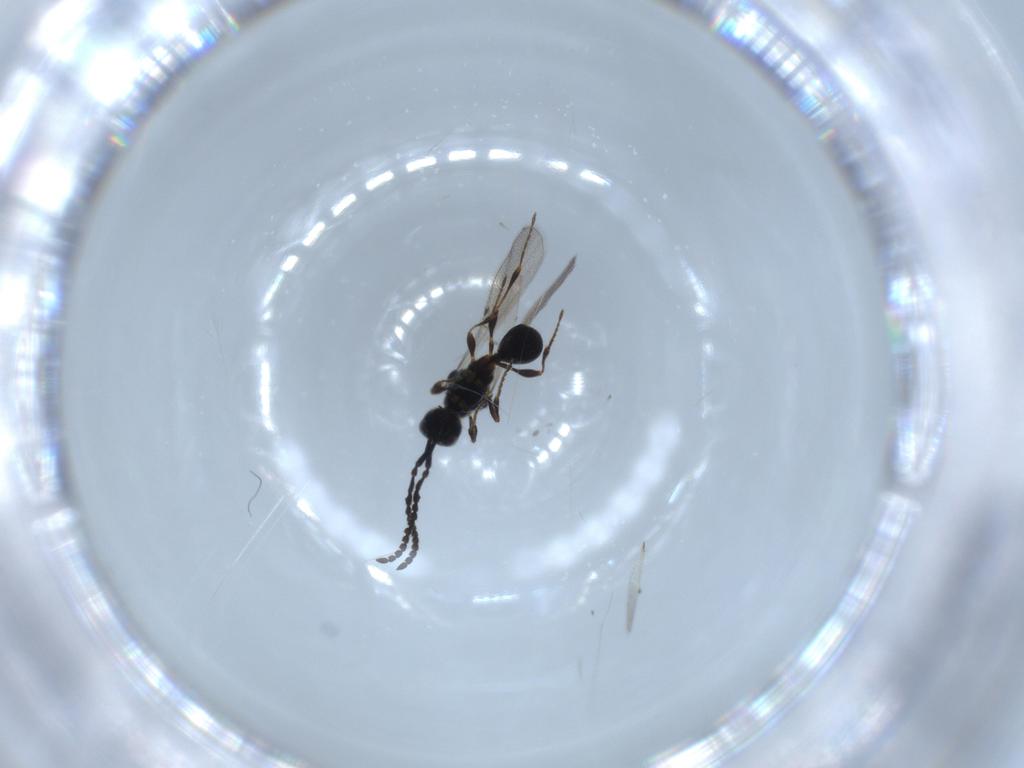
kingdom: Animalia
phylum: Arthropoda
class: Insecta
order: Hymenoptera
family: Diapriidae
